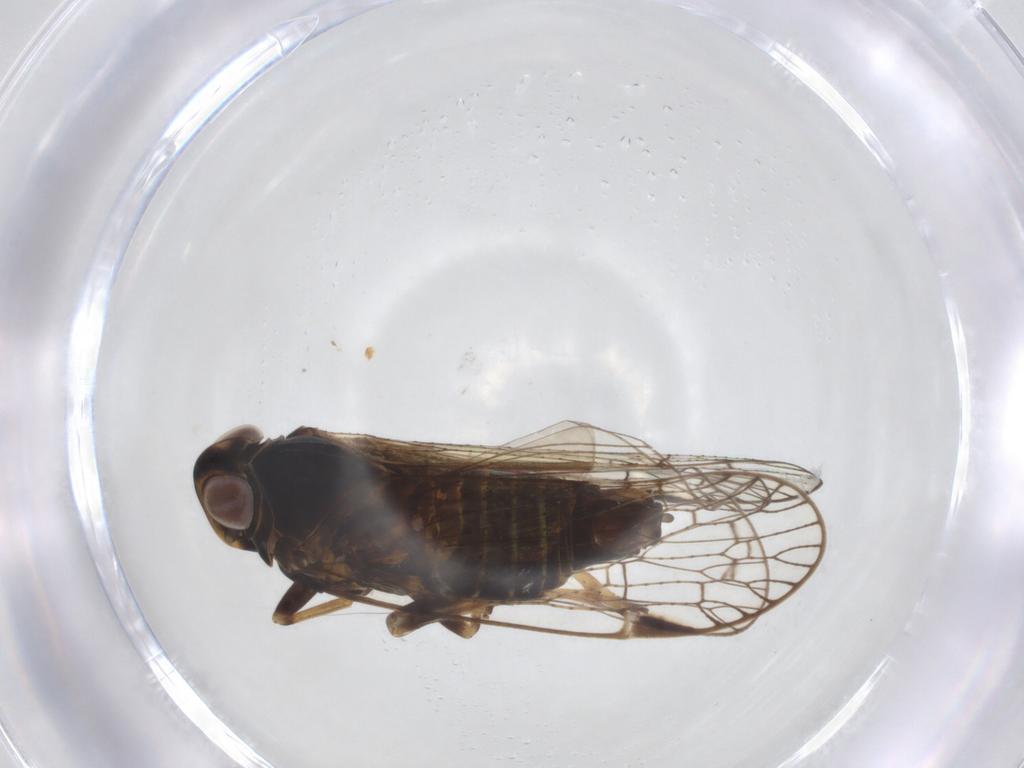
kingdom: Animalia
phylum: Arthropoda
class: Insecta
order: Hemiptera
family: Cixiidae
